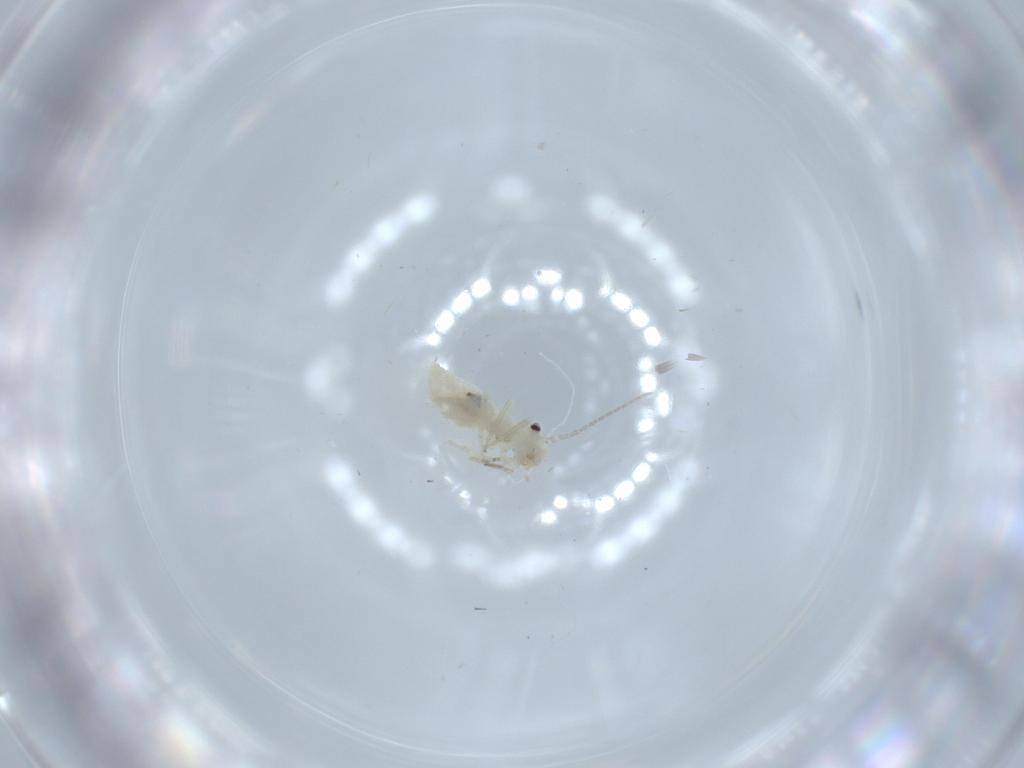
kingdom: Animalia
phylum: Arthropoda
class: Insecta
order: Psocodea
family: Caeciliusidae
